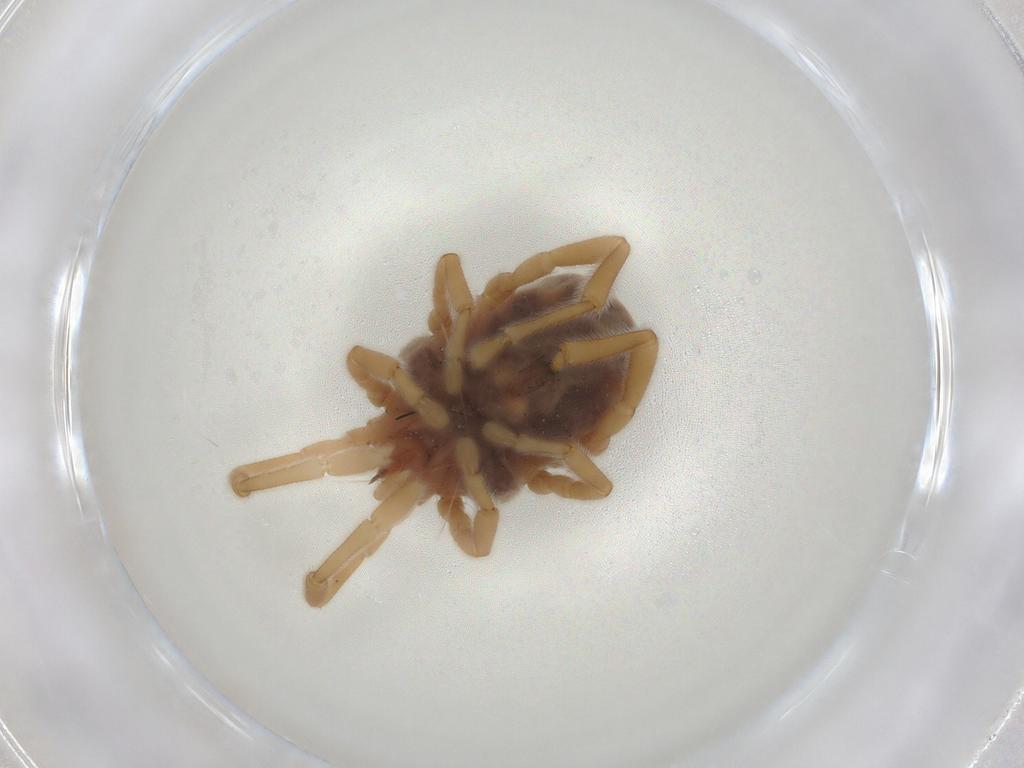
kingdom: Animalia
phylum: Arthropoda
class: Insecta
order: Hemiptera
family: Cicadellidae
